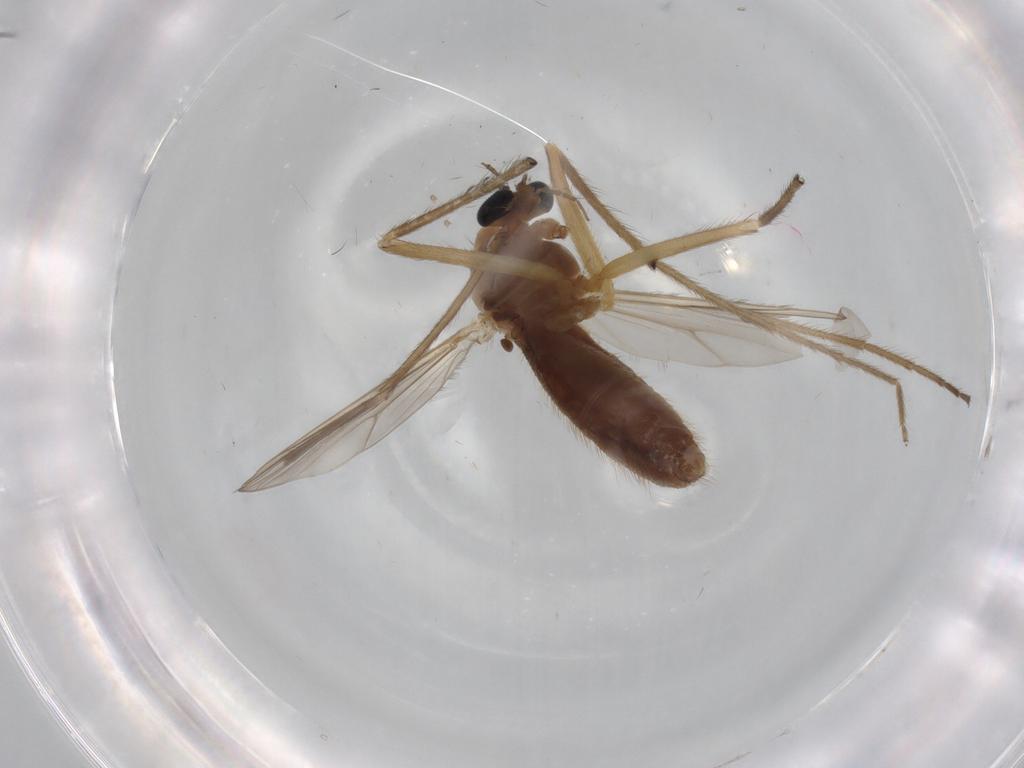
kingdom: Animalia
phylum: Arthropoda
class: Insecta
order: Diptera
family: Chironomidae
